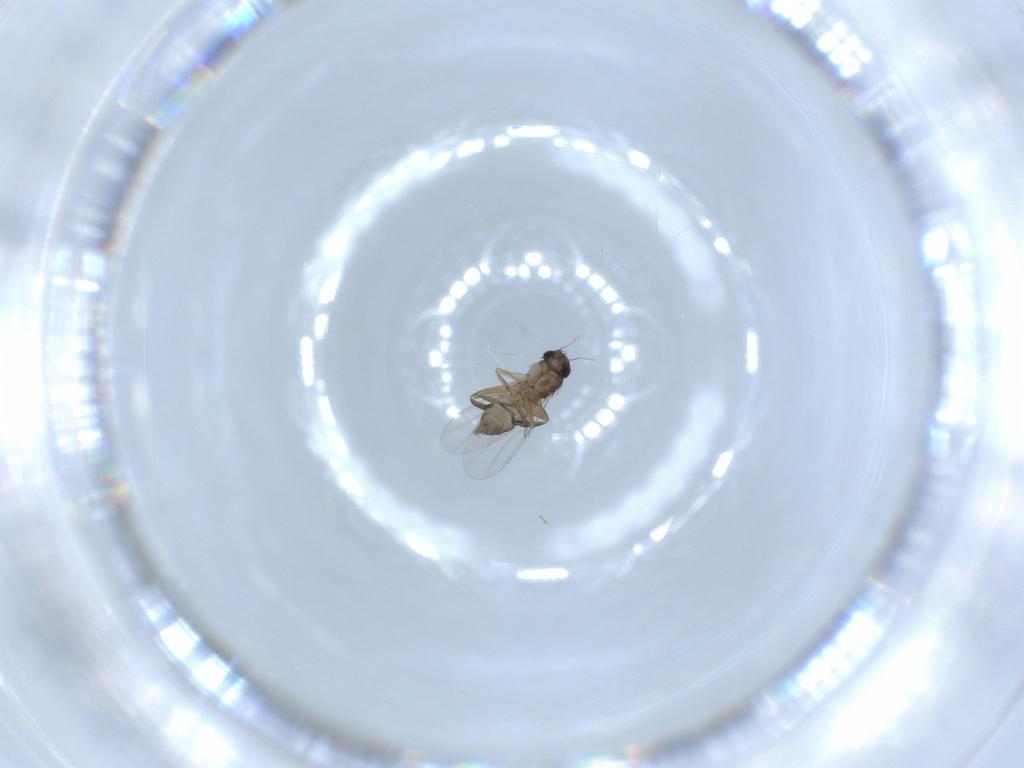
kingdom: Animalia
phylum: Arthropoda
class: Insecta
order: Diptera
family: Phoridae
